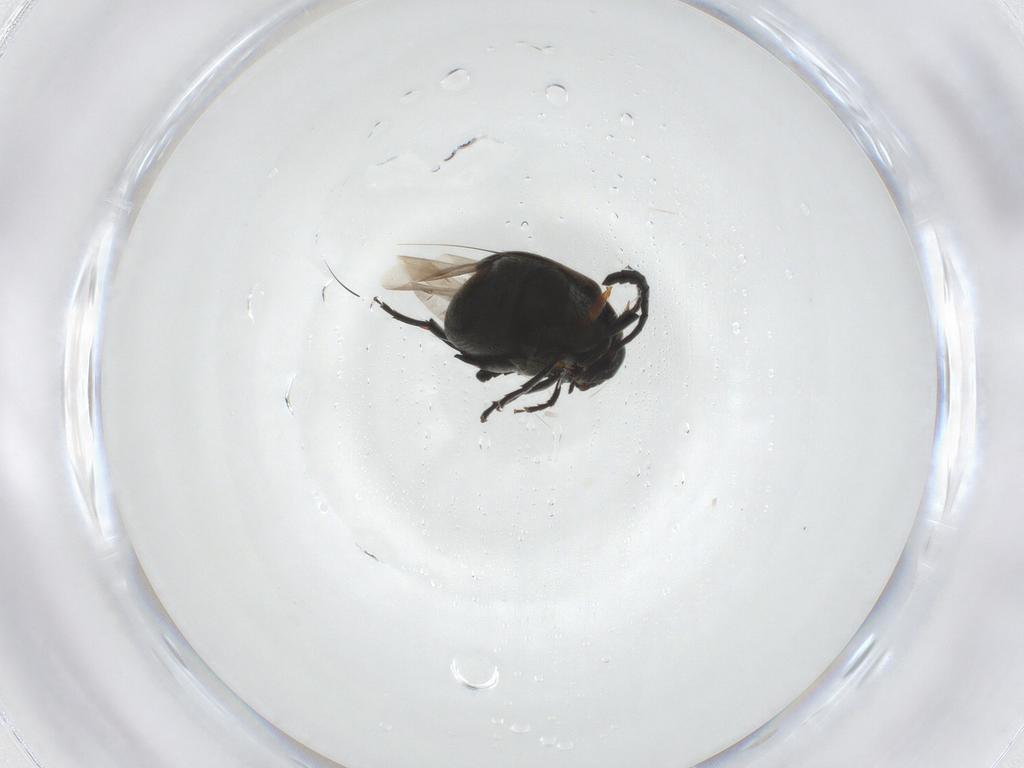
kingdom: Animalia
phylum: Arthropoda
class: Insecta
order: Coleoptera
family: Chrysomelidae
